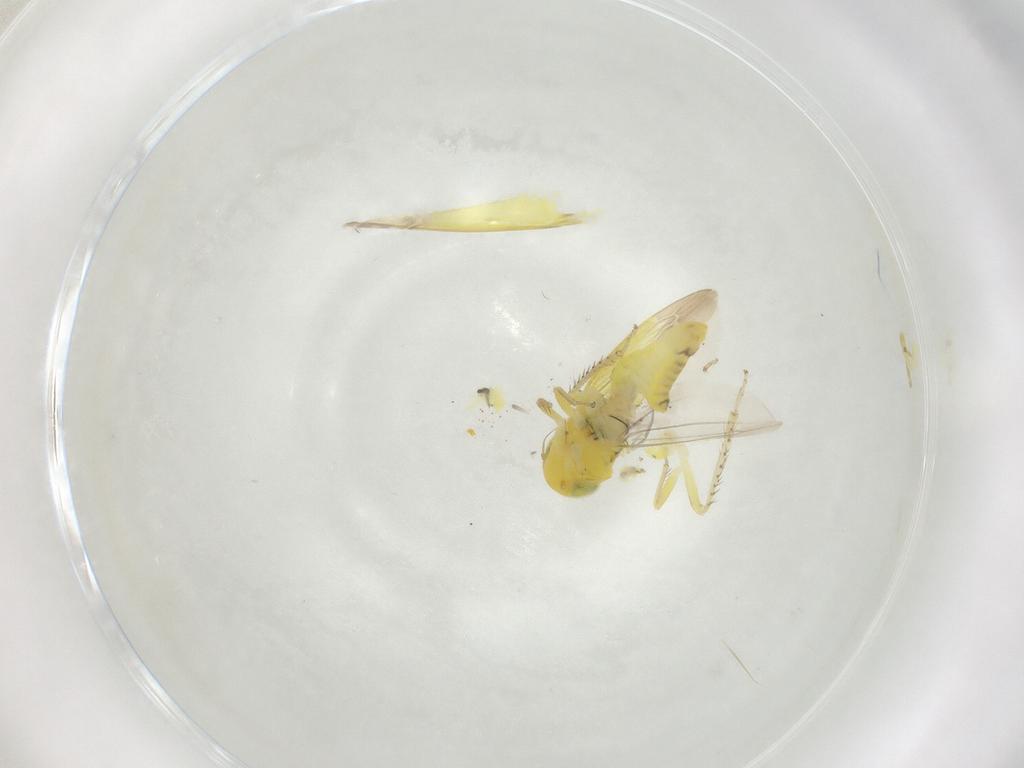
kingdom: Animalia
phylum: Arthropoda
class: Insecta
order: Hemiptera
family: Cicadellidae
